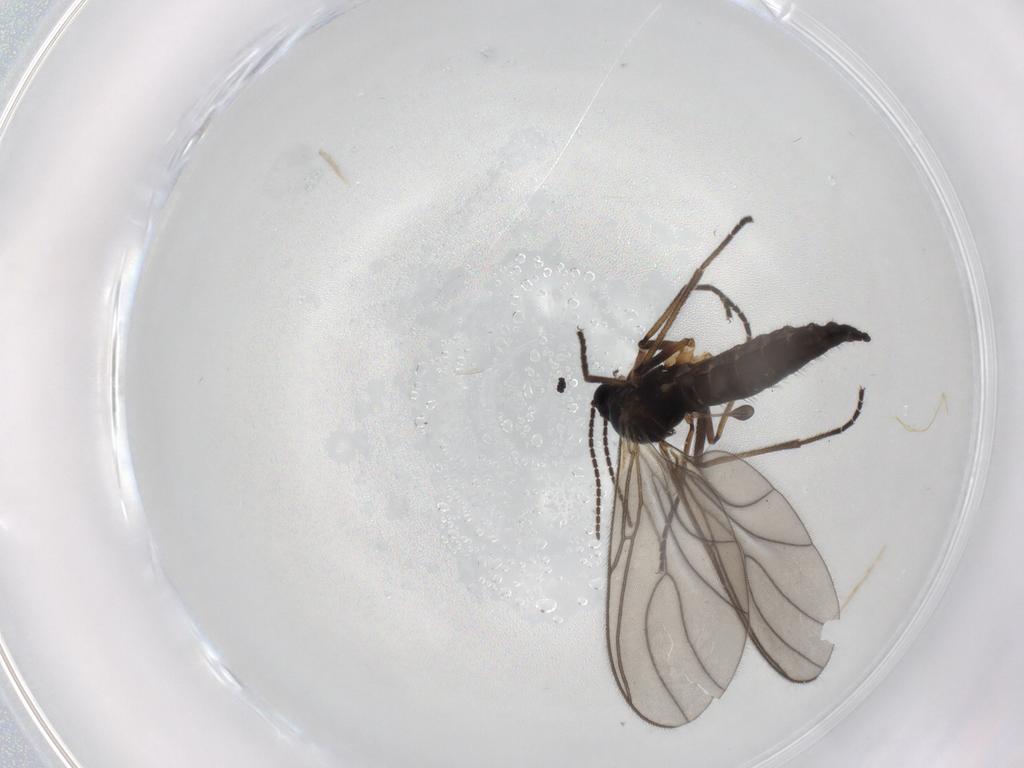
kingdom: Animalia
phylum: Arthropoda
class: Insecta
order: Diptera
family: Sciaridae
